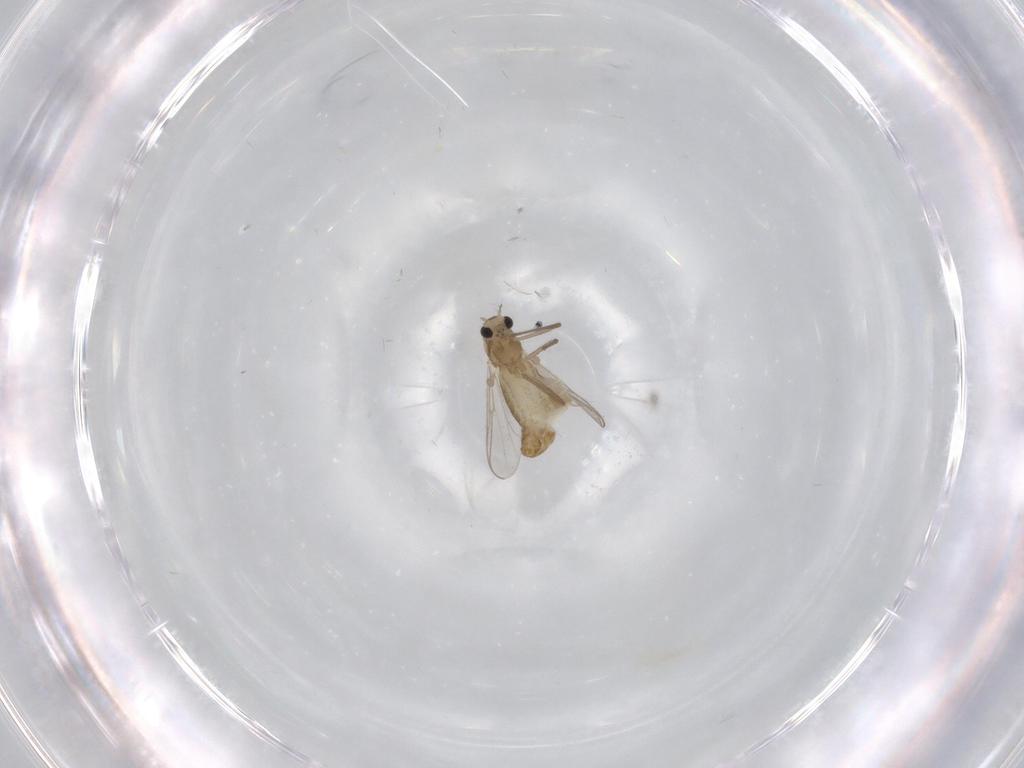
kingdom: Animalia
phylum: Arthropoda
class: Insecta
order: Diptera
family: Chironomidae
